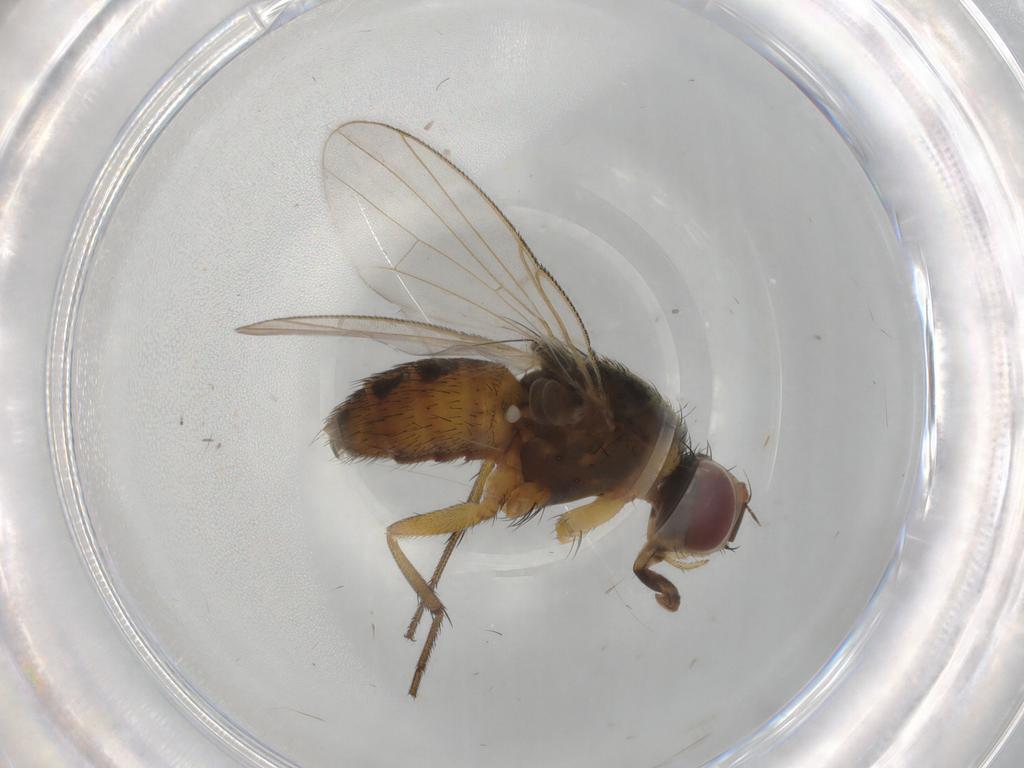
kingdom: Animalia
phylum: Arthropoda
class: Insecta
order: Diptera
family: Muscidae
